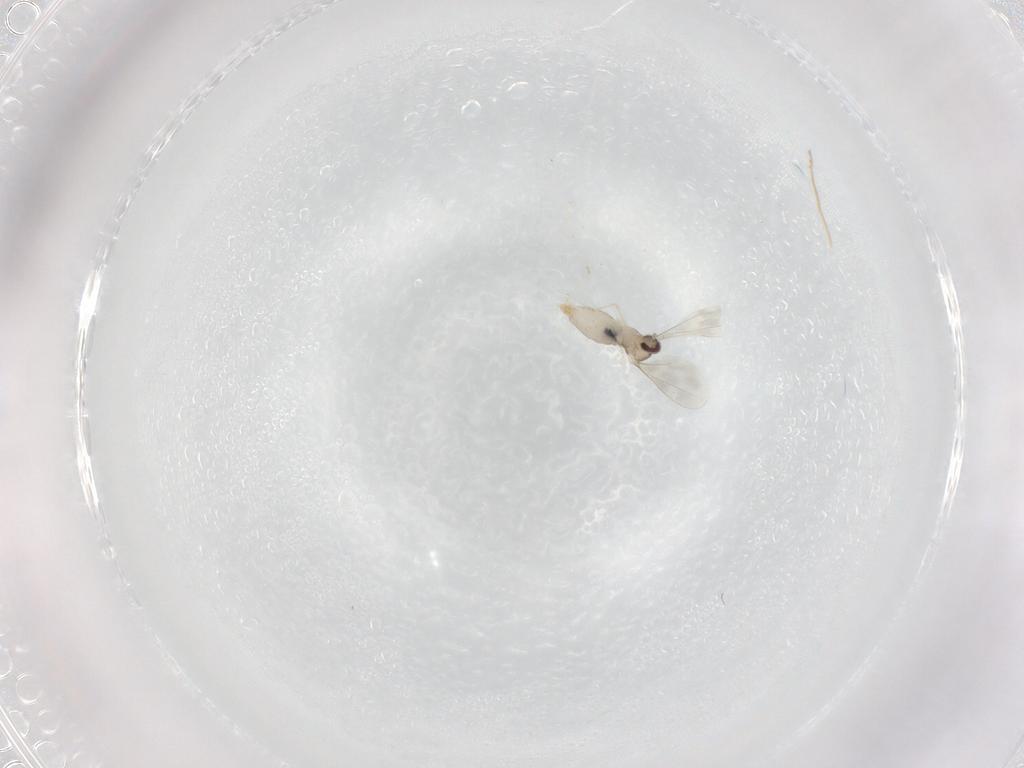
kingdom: Animalia
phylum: Arthropoda
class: Insecta
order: Diptera
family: Cecidomyiidae
